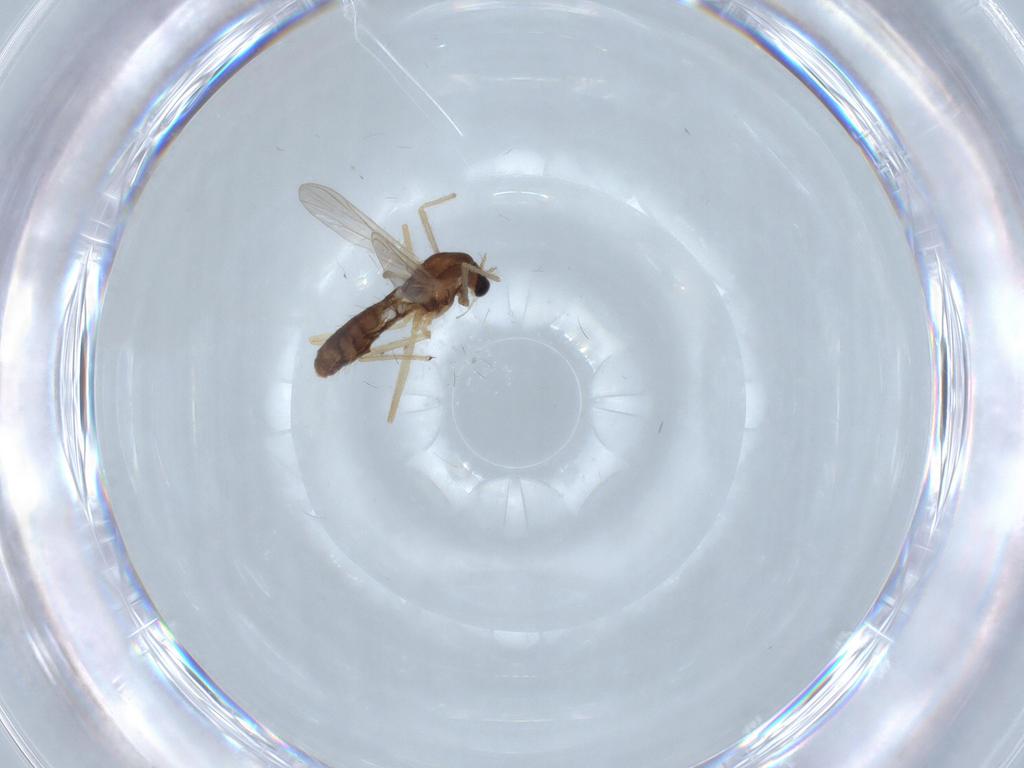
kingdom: Animalia
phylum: Arthropoda
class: Insecta
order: Diptera
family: Chironomidae
